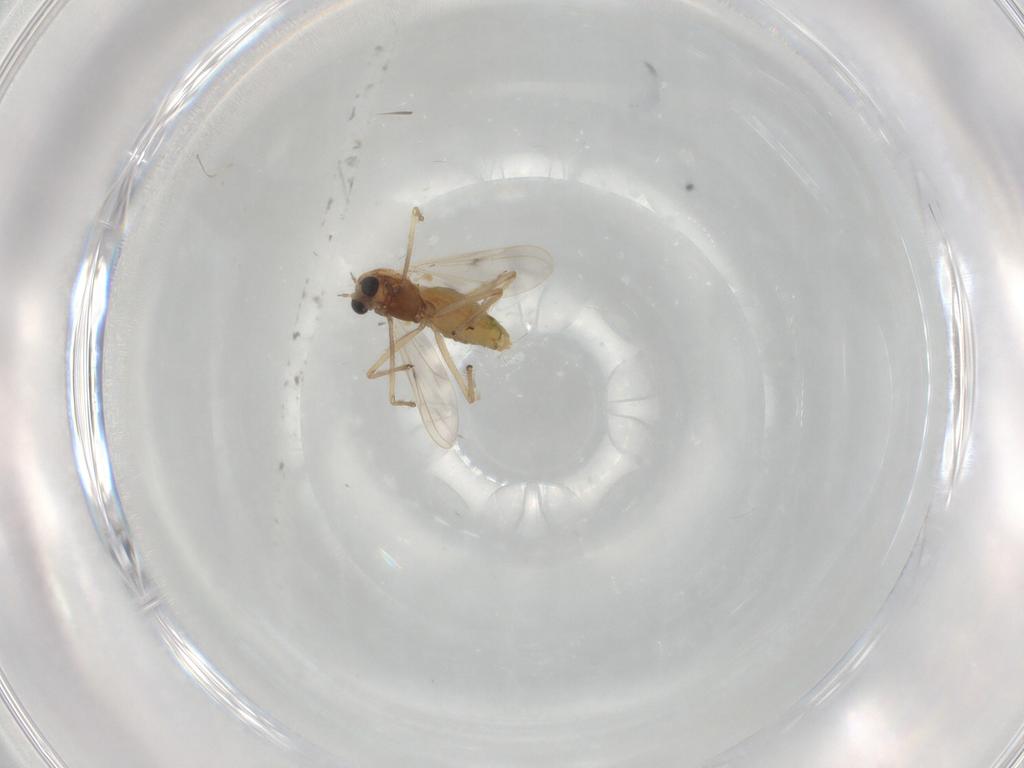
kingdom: Animalia
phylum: Arthropoda
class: Insecta
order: Diptera
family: Chironomidae
